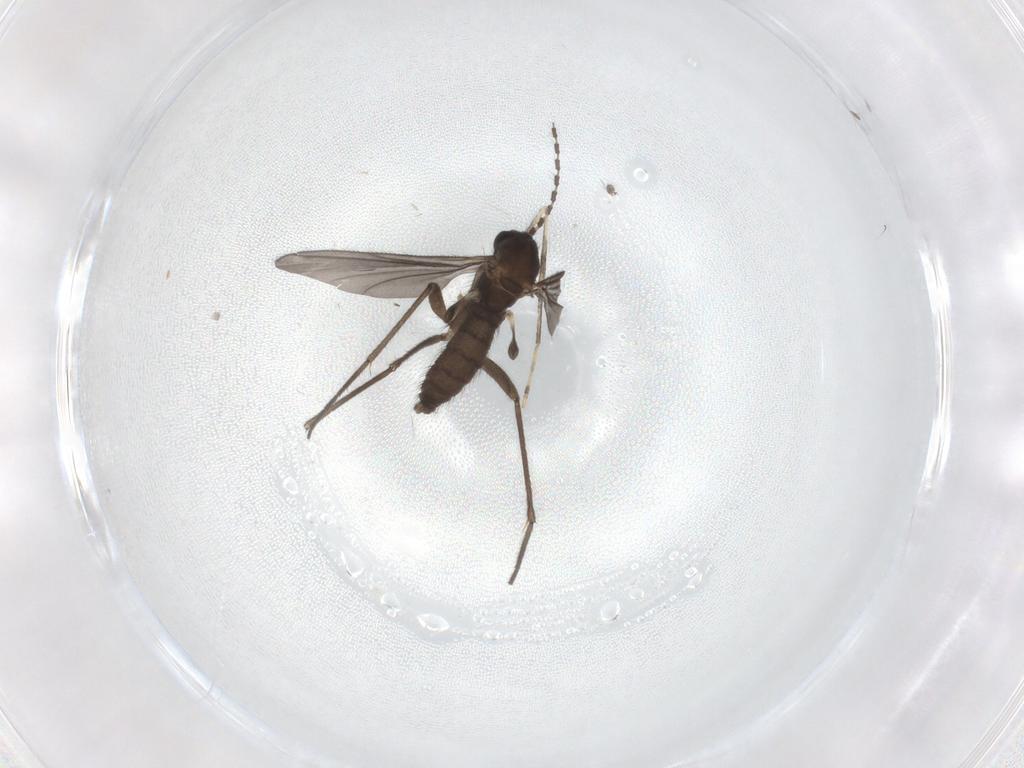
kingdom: Animalia
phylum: Arthropoda
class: Insecta
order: Diptera
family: Sciaridae
